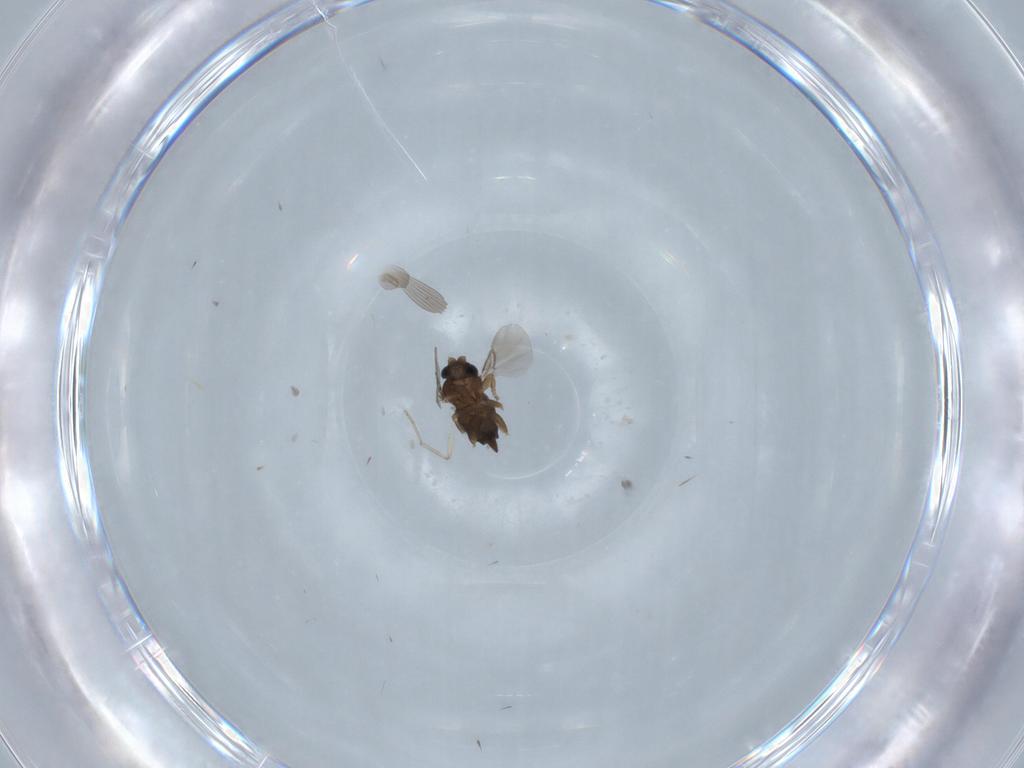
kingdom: Animalia
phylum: Arthropoda
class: Insecta
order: Diptera
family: Phoridae
